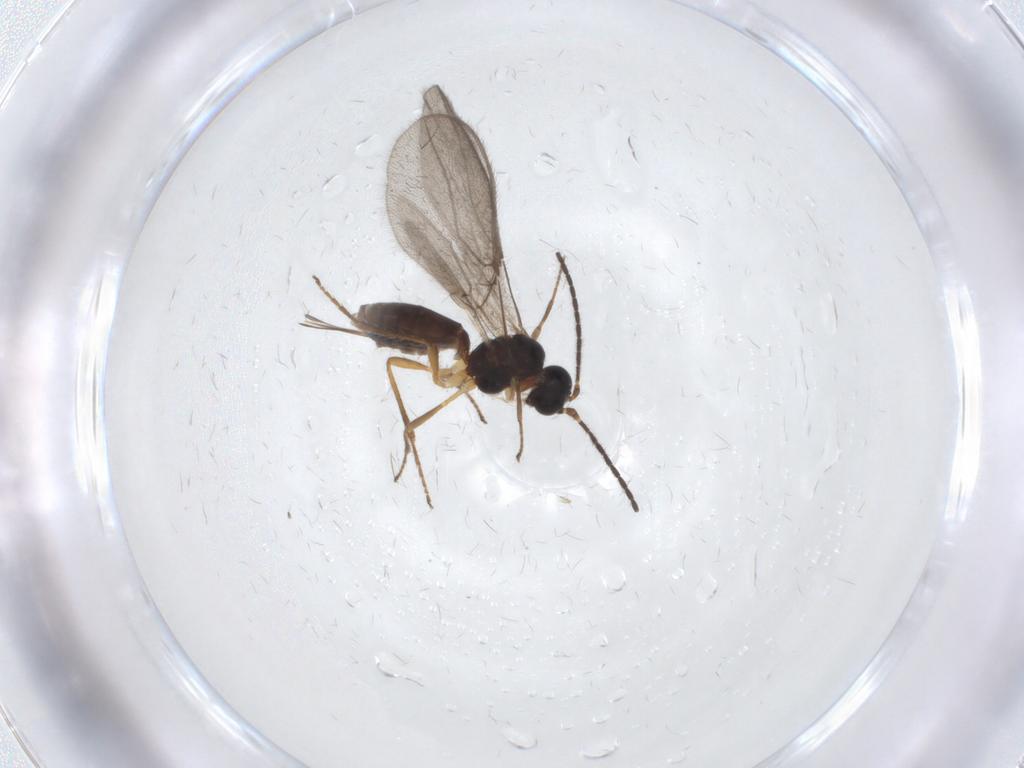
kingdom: Animalia
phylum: Arthropoda
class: Insecta
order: Hymenoptera
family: Braconidae
